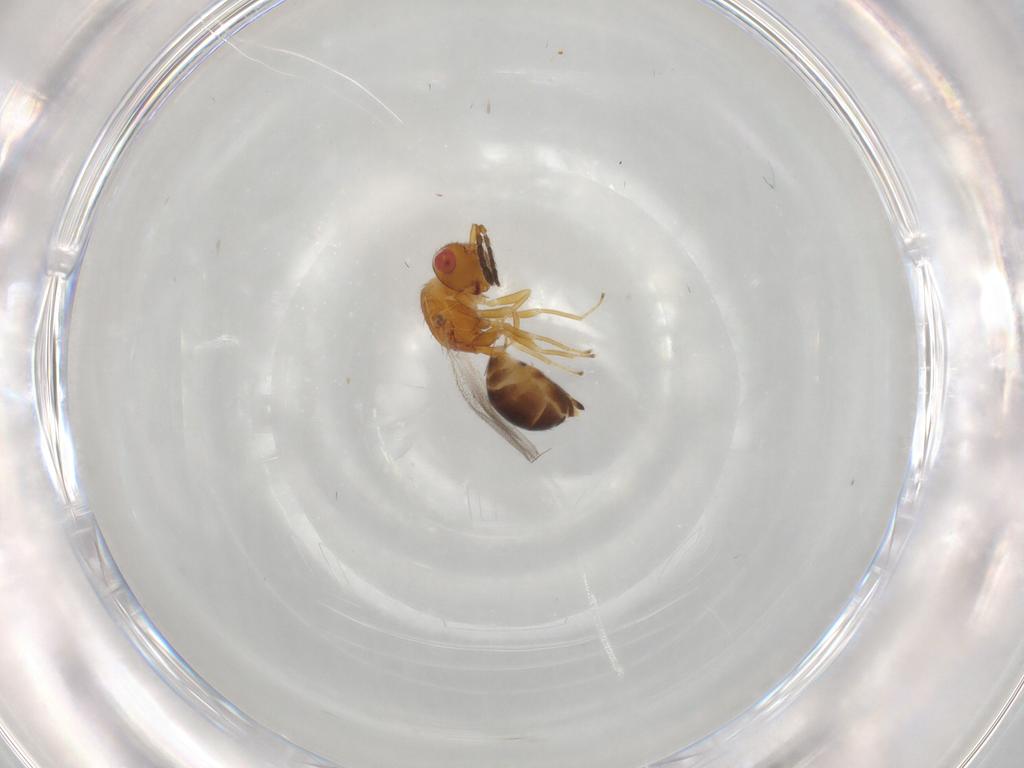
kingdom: Animalia
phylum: Arthropoda
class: Insecta
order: Hymenoptera
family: Eulophidae
